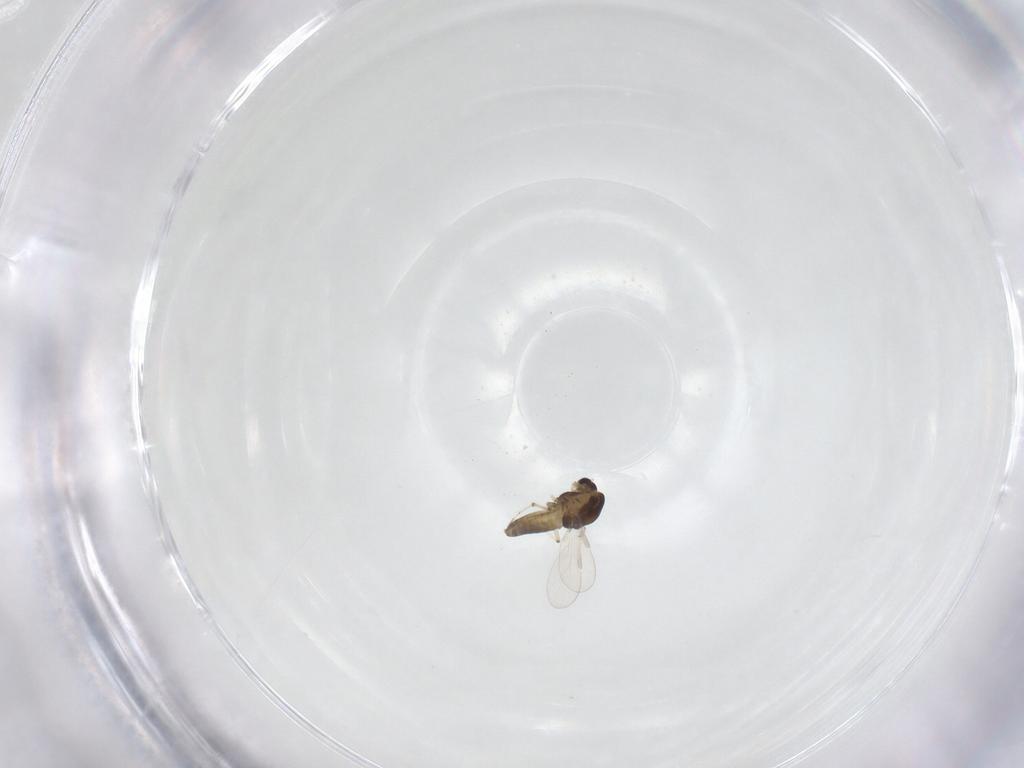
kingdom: Animalia
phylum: Arthropoda
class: Insecta
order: Diptera
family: Chironomidae
